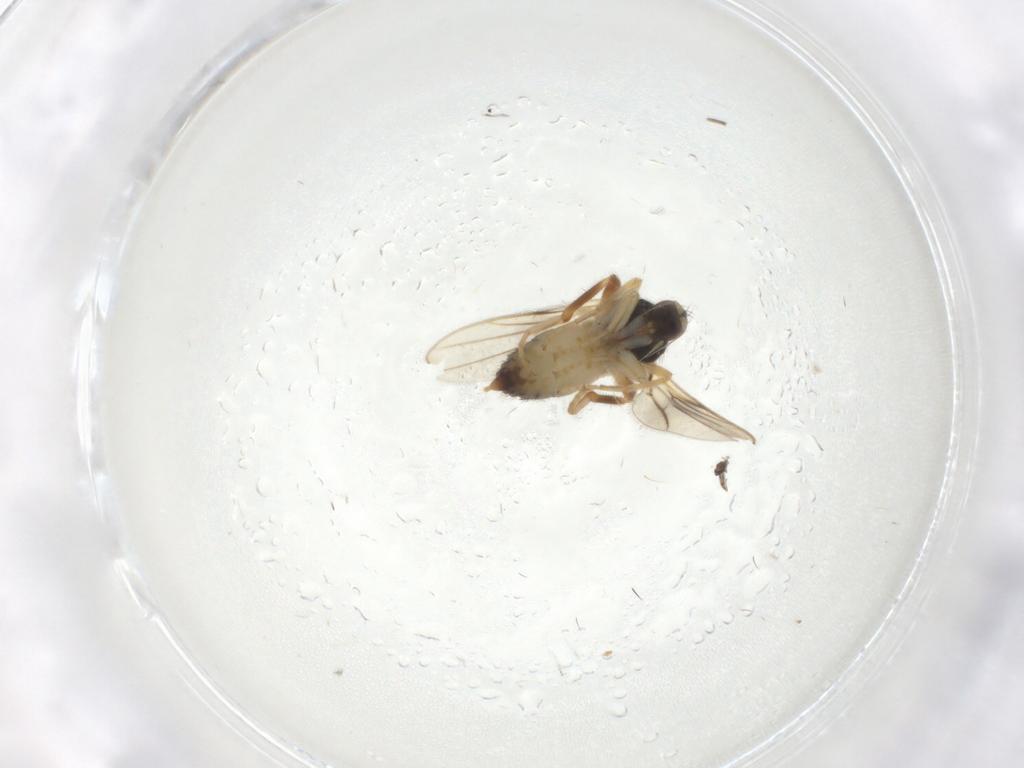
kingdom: Animalia
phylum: Arthropoda
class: Insecta
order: Diptera
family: Hybotidae
